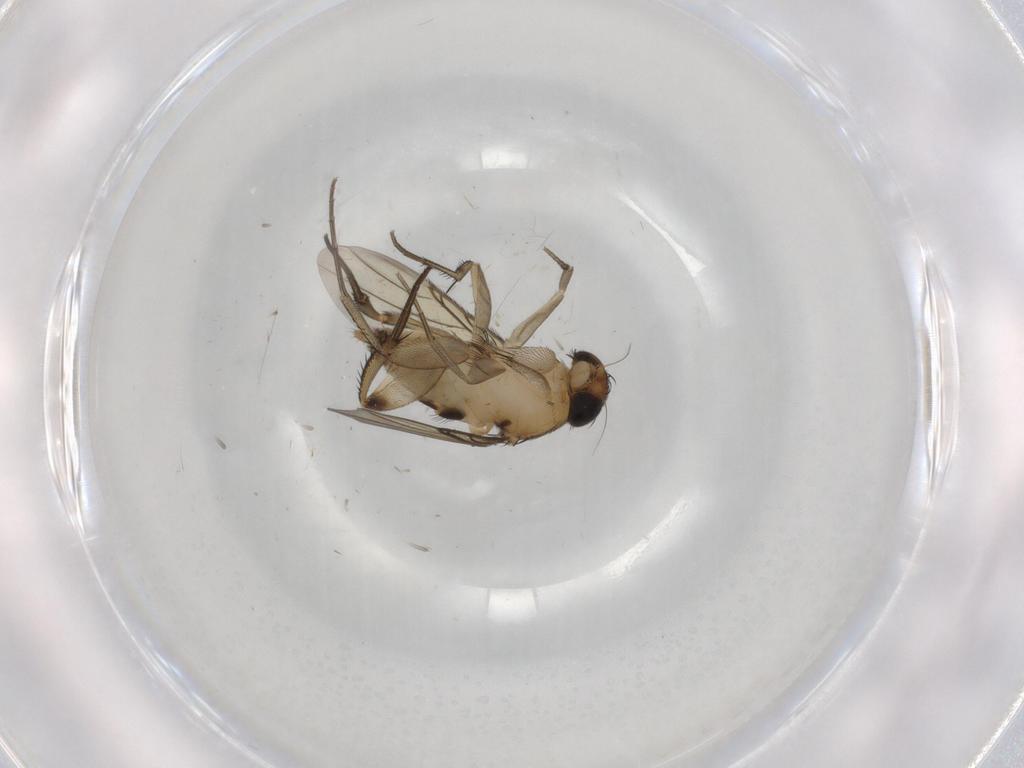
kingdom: Animalia
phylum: Arthropoda
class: Insecta
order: Diptera
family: Phoridae
